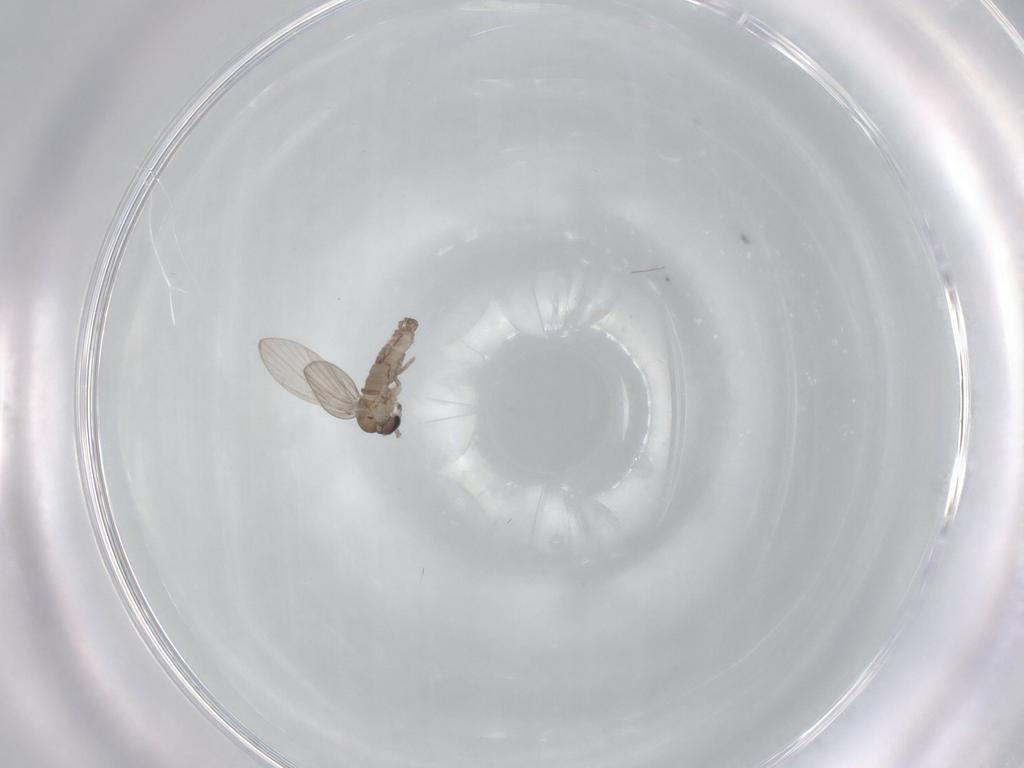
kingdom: Animalia
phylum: Arthropoda
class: Insecta
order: Diptera
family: Psychodidae
